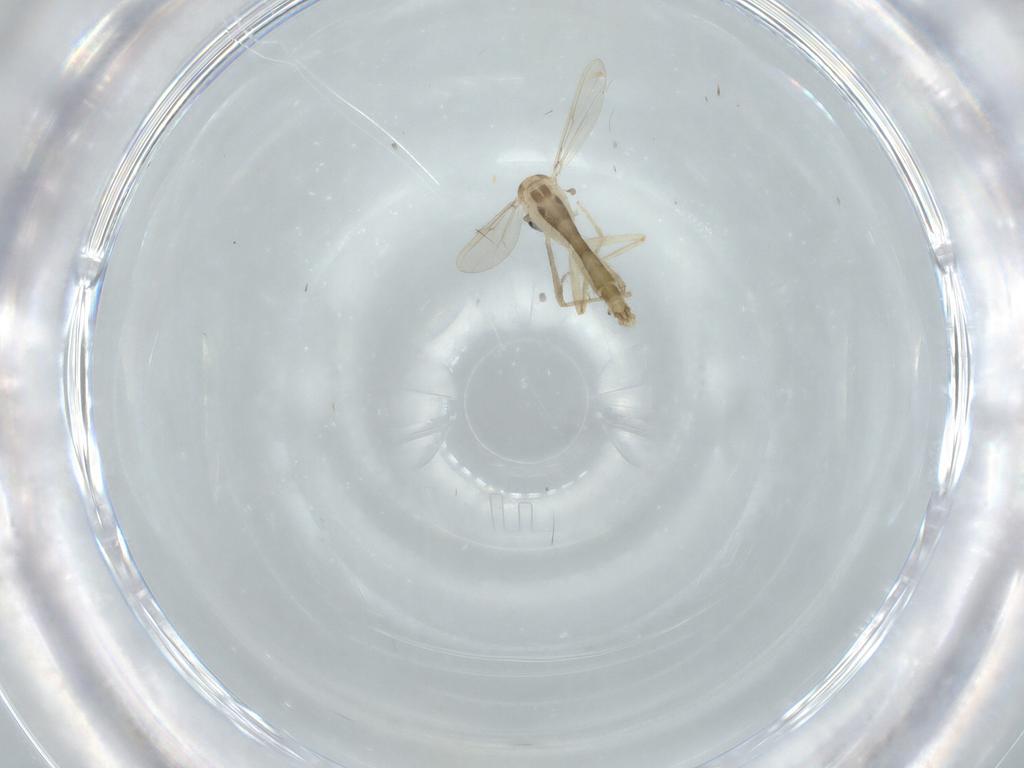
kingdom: Animalia
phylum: Arthropoda
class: Insecta
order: Diptera
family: Chironomidae
